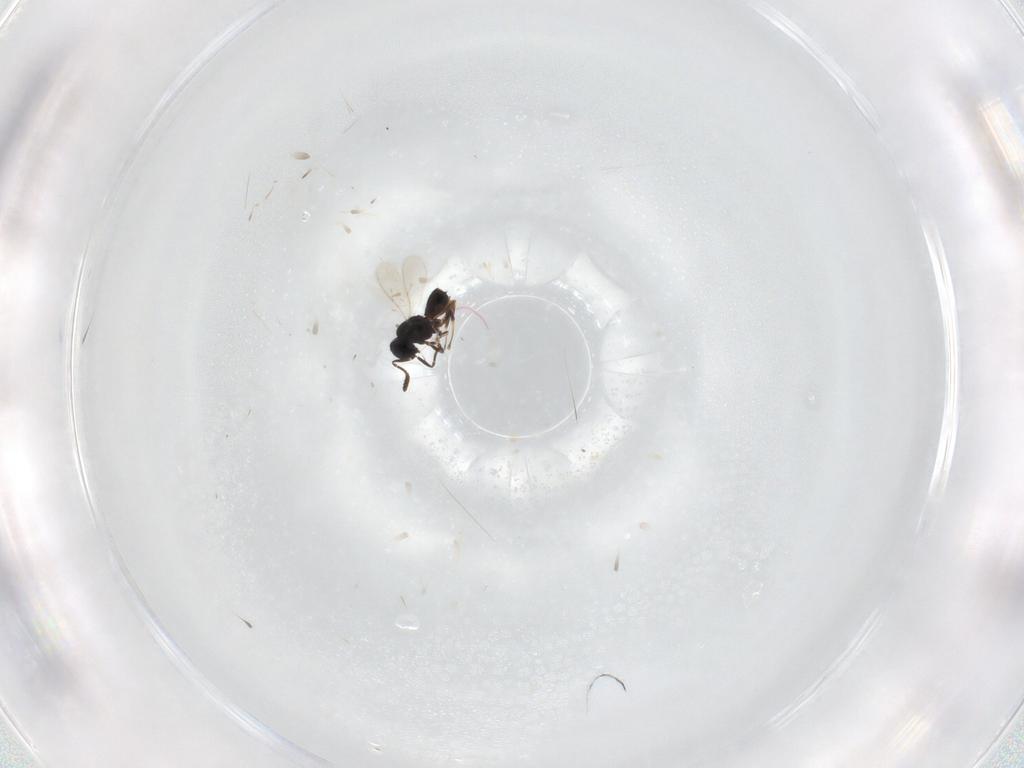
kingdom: Animalia
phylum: Arthropoda
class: Insecta
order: Hymenoptera
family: Scelionidae
